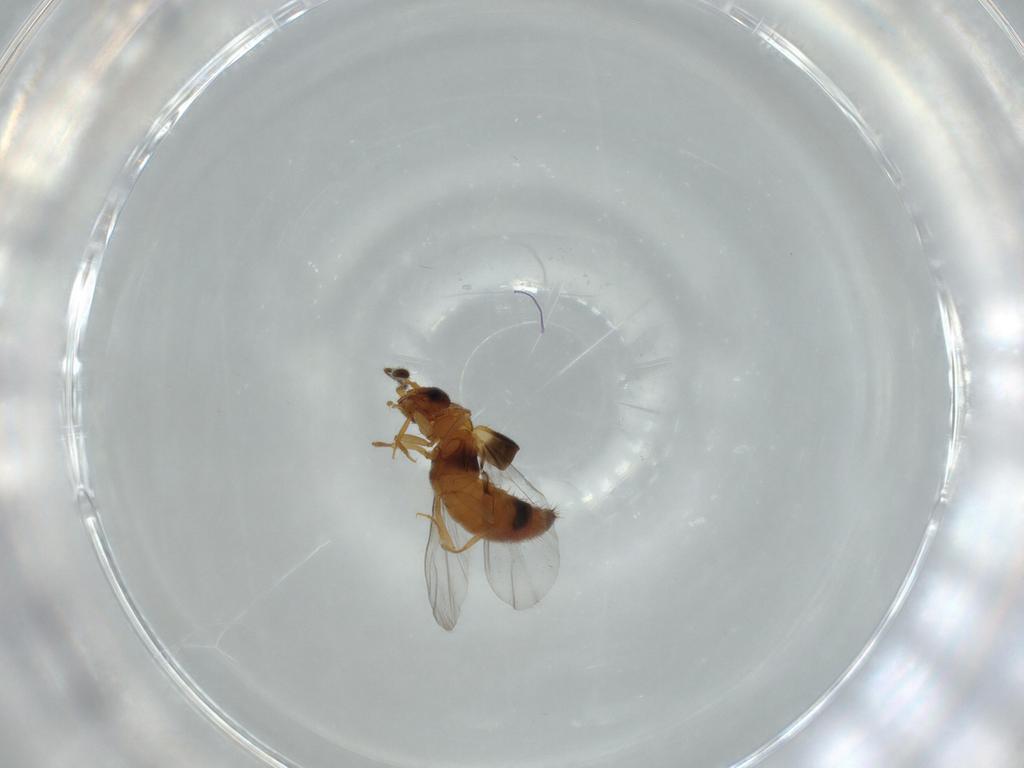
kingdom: Animalia
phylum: Arthropoda
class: Insecta
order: Coleoptera
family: Staphylinidae
